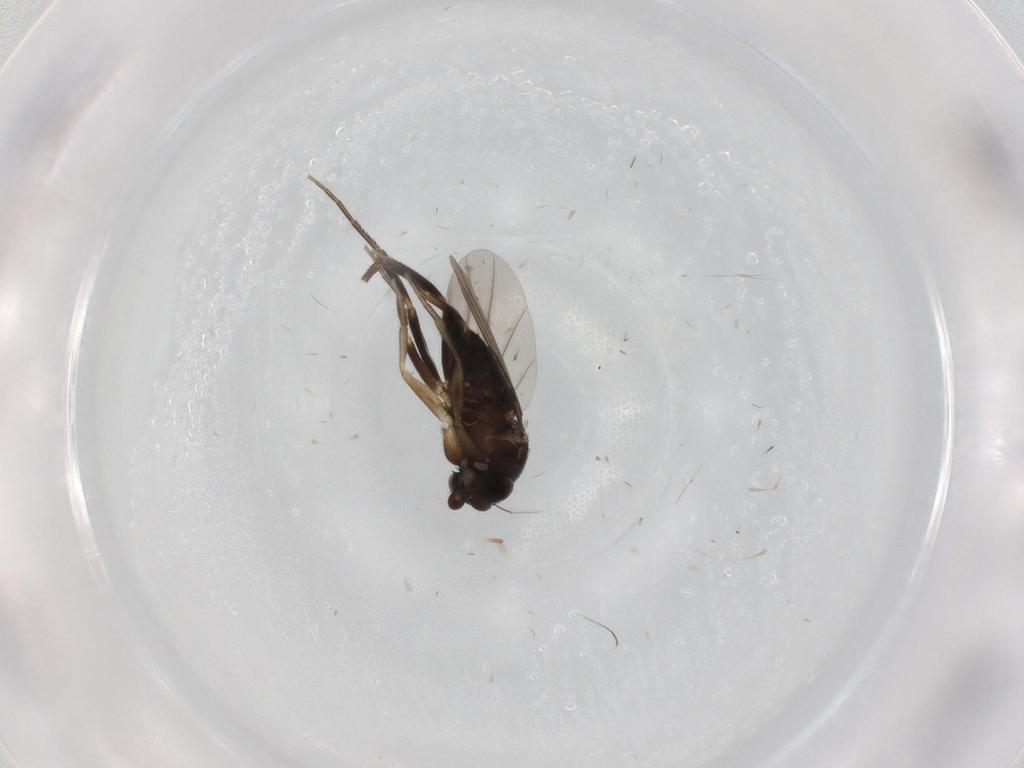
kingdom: Animalia
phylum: Arthropoda
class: Insecta
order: Diptera
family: Phoridae
